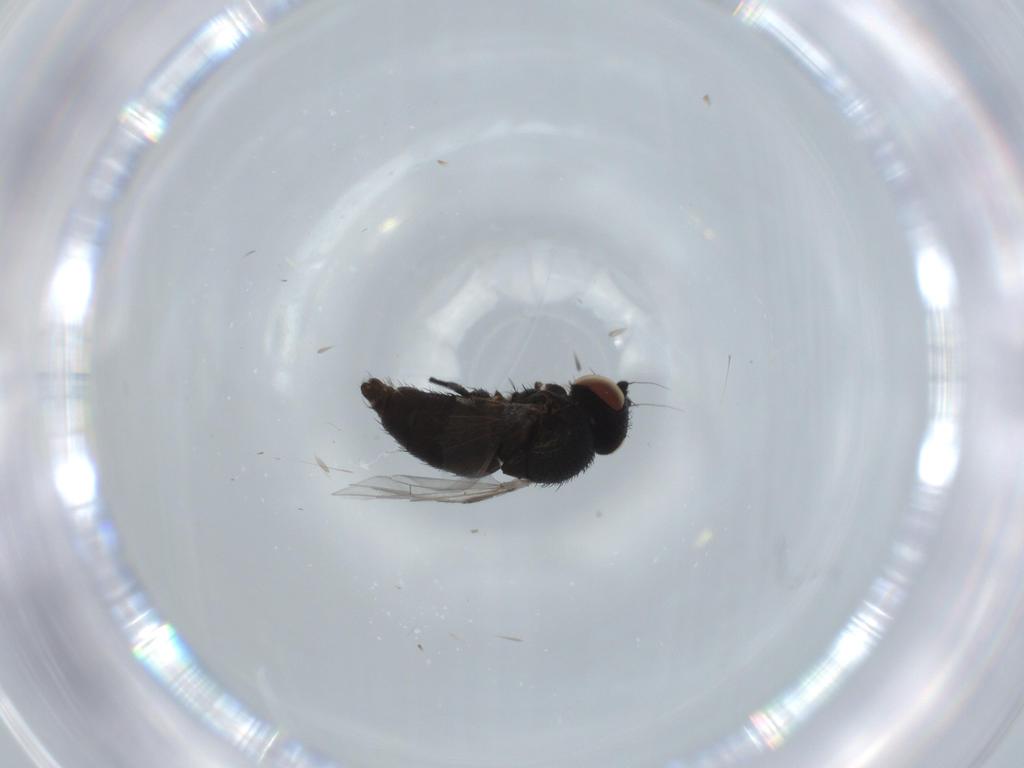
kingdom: Animalia
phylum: Arthropoda
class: Insecta
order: Diptera
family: Milichiidae
